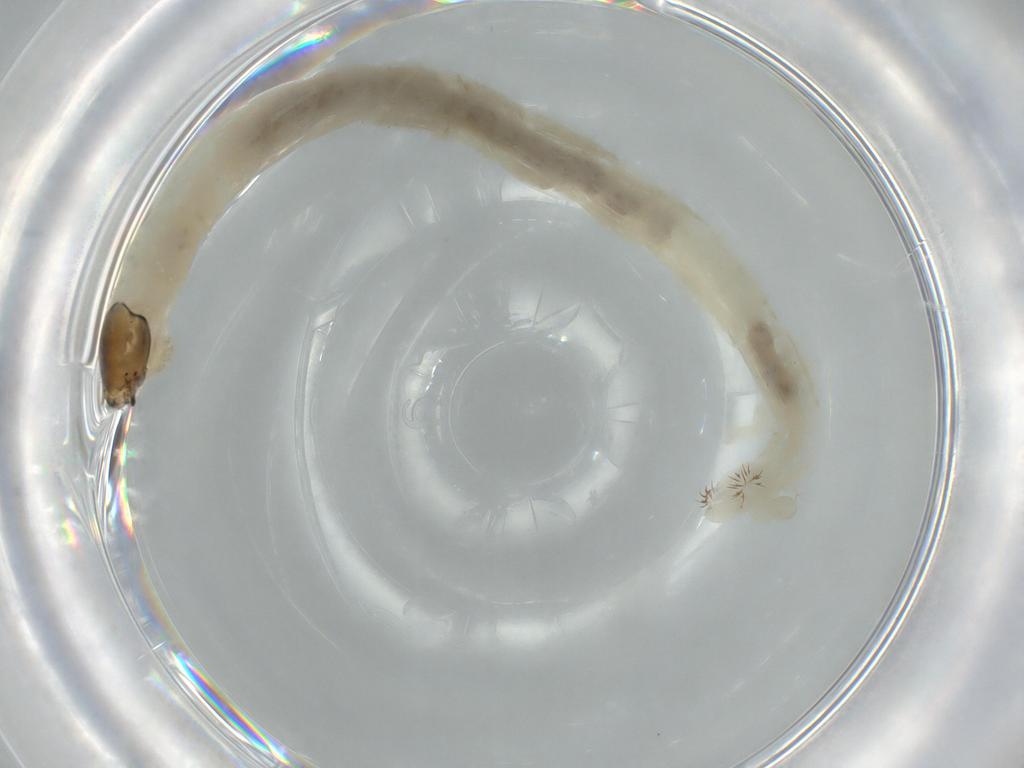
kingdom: Animalia
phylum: Arthropoda
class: Insecta
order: Diptera
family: Chironomidae
